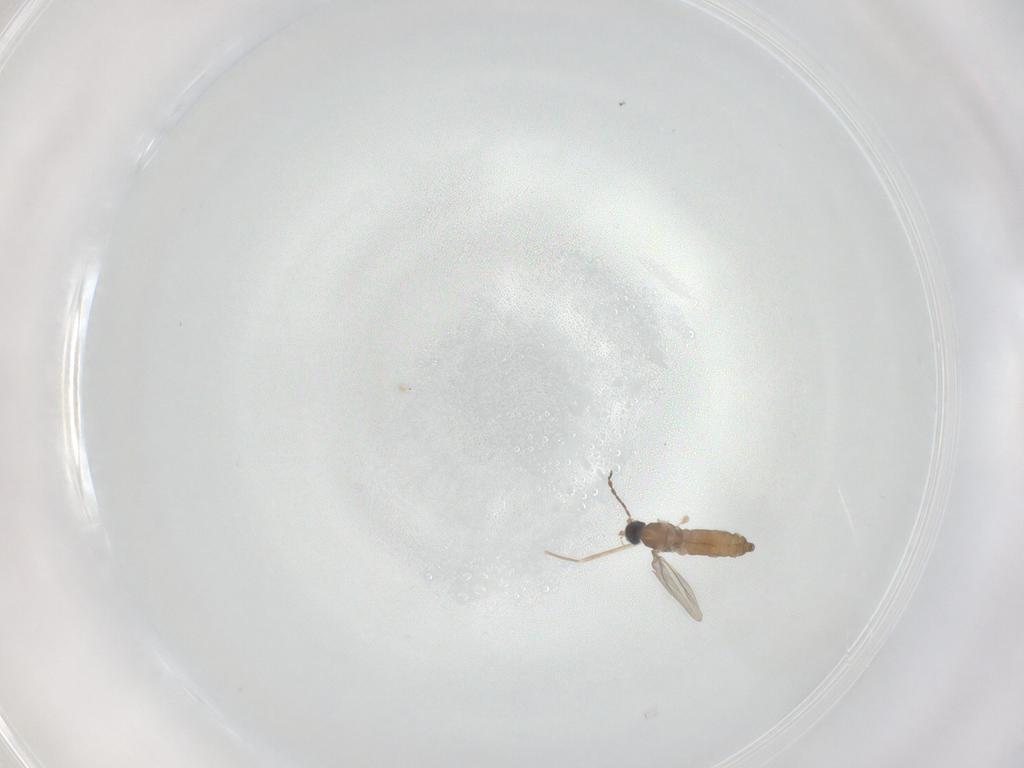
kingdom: Animalia
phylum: Arthropoda
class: Insecta
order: Diptera
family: Cecidomyiidae
